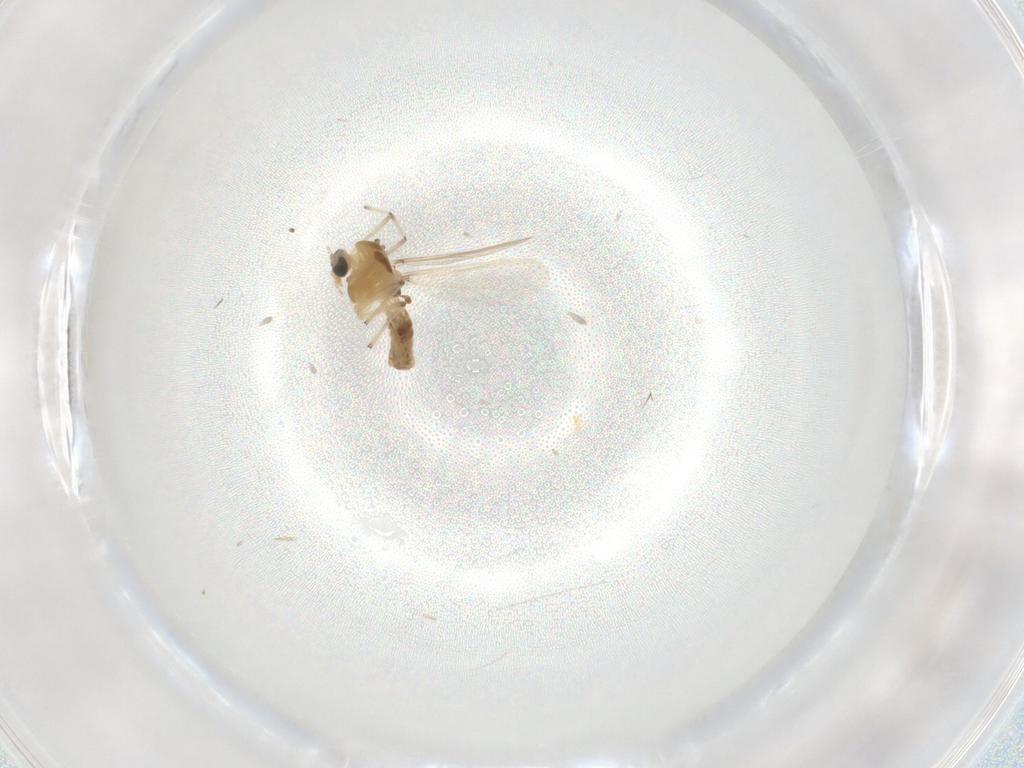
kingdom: Animalia
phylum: Arthropoda
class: Insecta
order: Diptera
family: Chironomidae
